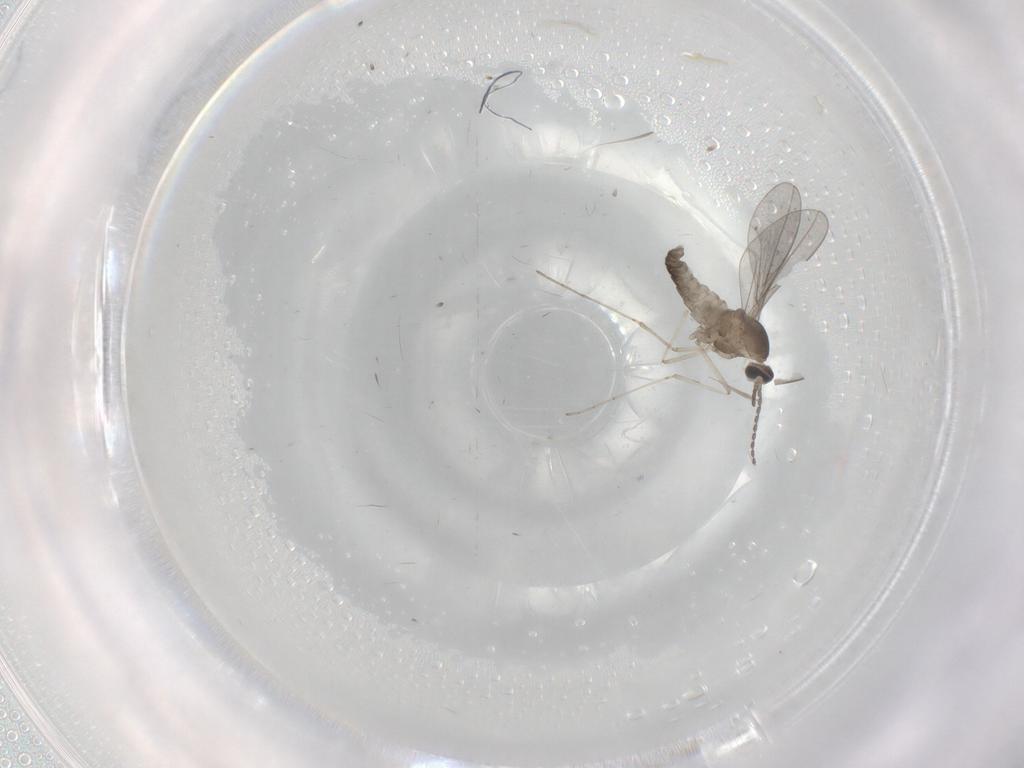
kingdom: Animalia
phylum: Arthropoda
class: Insecta
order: Diptera
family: Cecidomyiidae
